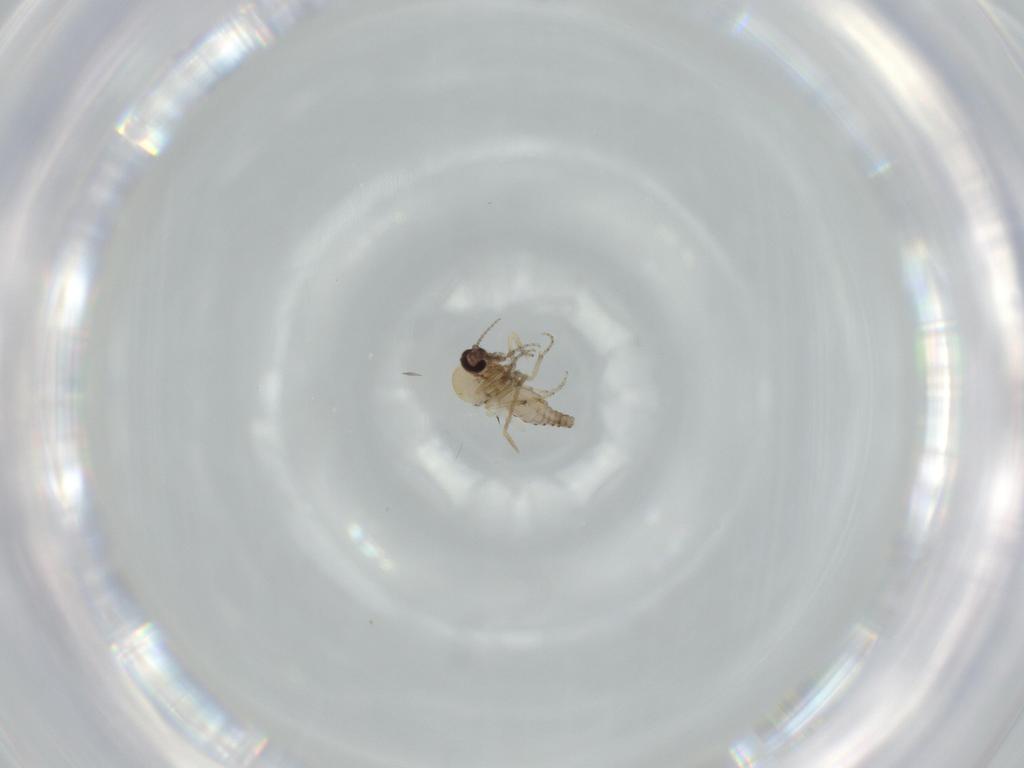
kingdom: Animalia
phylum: Arthropoda
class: Insecta
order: Diptera
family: Chironomidae
